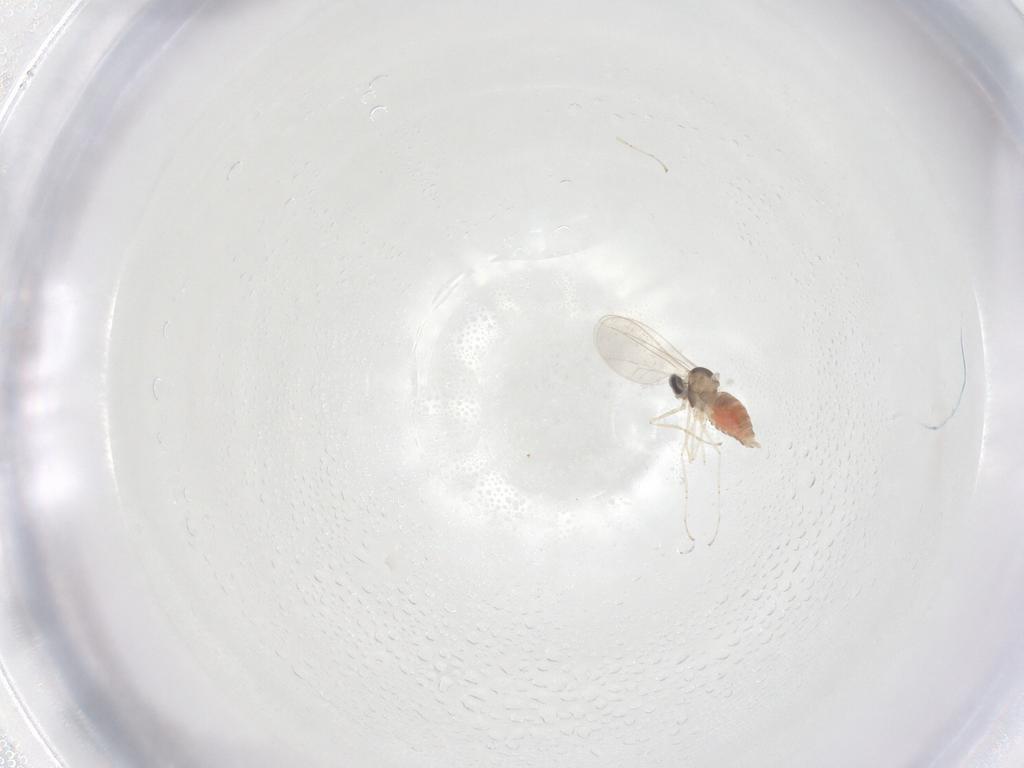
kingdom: Animalia
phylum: Arthropoda
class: Insecta
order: Diptera
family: Cecidomyiidae
